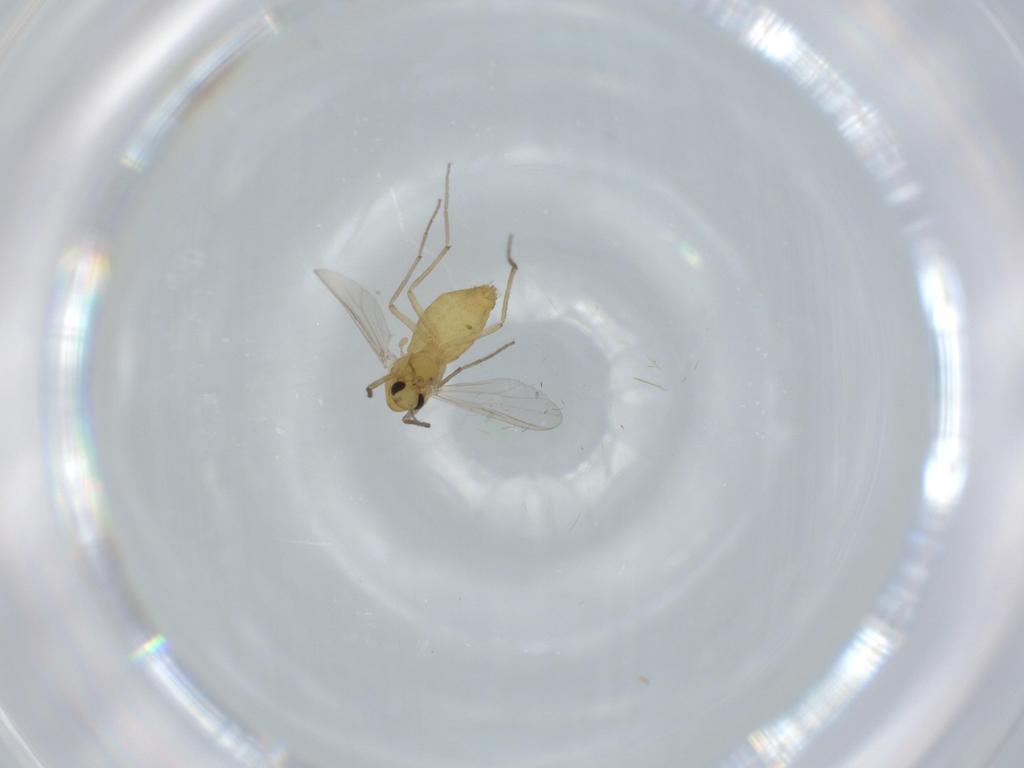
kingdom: Animalia
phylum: Arthropoda
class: Insecta
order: Diptera
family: Chironomidae
